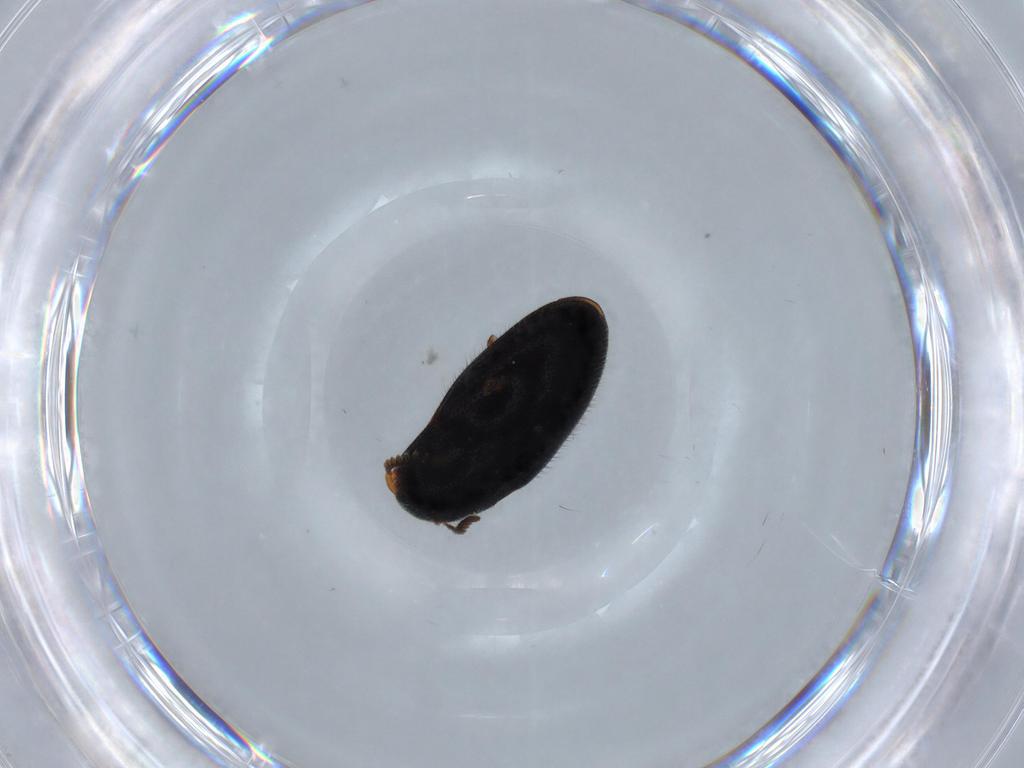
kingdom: Animalia
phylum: Arthropoda
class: Insecta
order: Coleoptera
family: Elateridae
